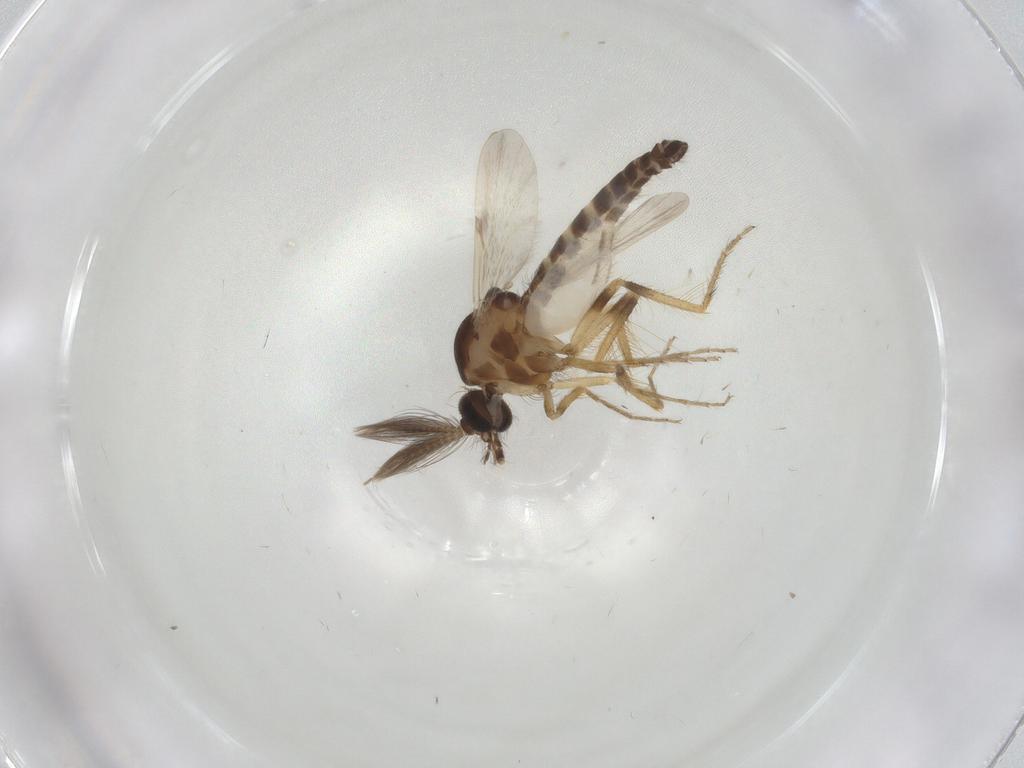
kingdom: Animalia
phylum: Arthropoda
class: Insecta
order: Diptera
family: Ceratopogonidae
